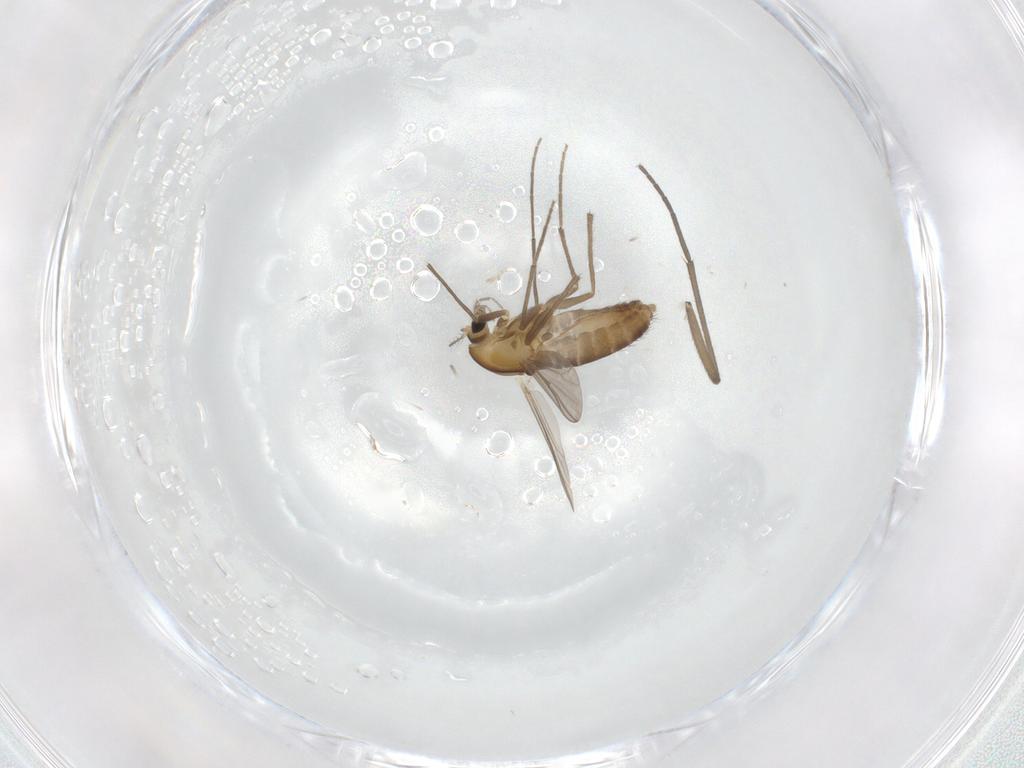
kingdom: Animalia
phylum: Arthropoda
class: Insecta
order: Diptera
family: Chironomidae
